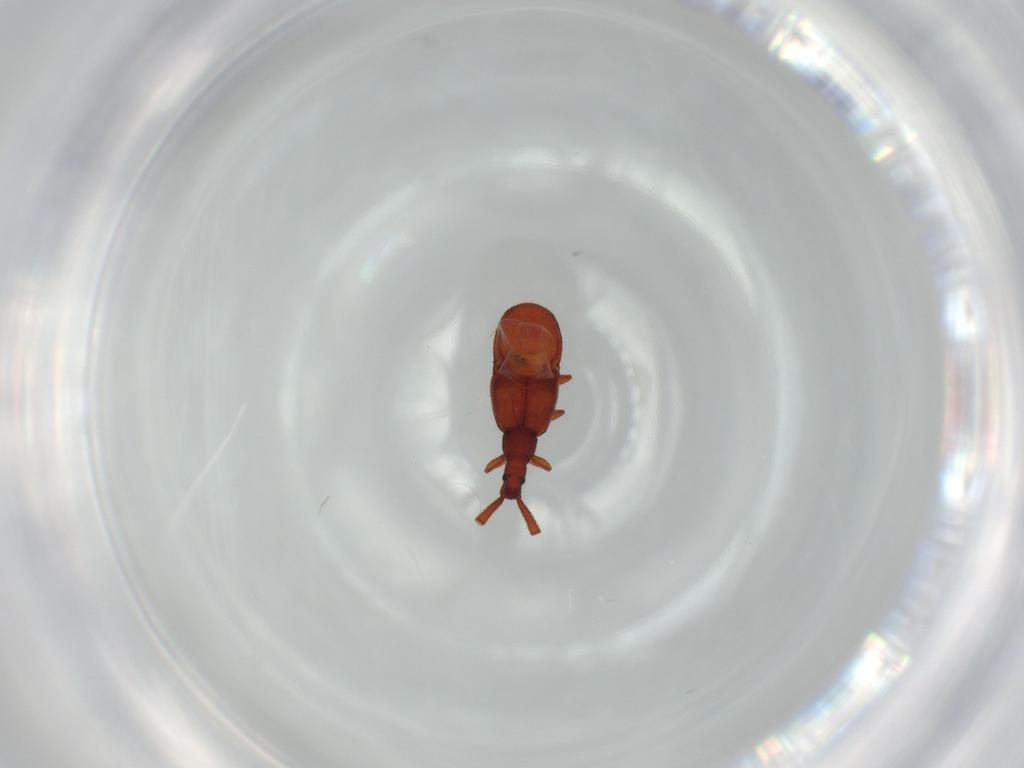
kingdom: Animalia
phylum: Arthropoda
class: Insecta
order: Coleoptera
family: Staphylinidae
